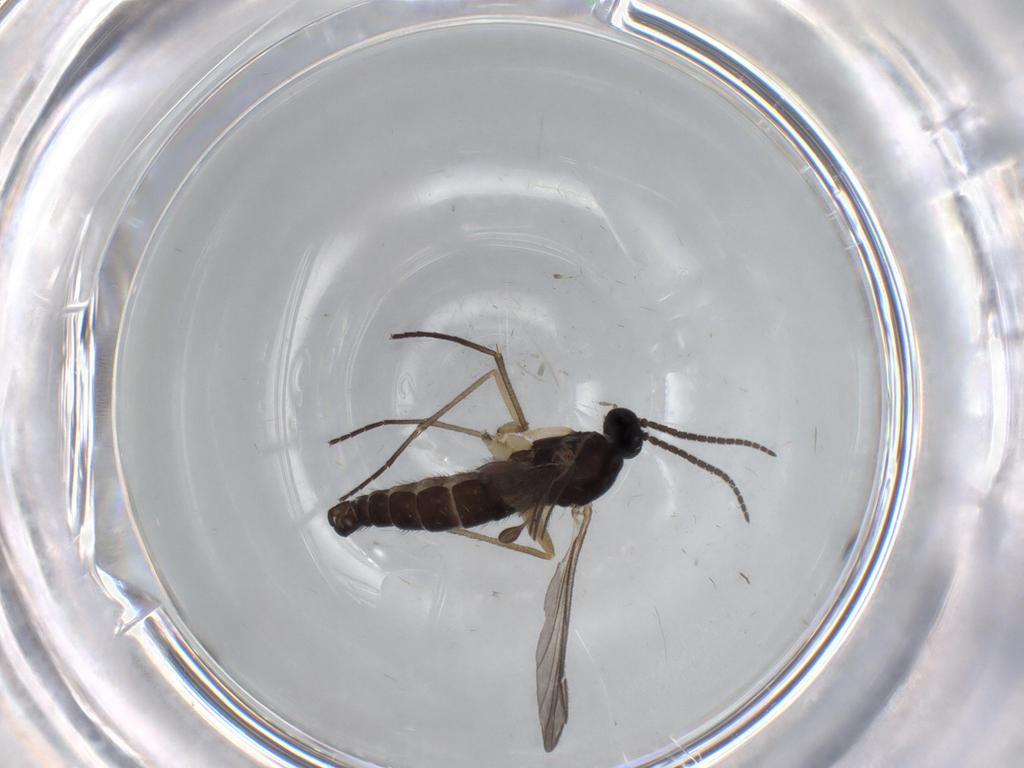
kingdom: Animalia
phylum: Arthropoda
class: Insecta
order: Diptera
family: Sciaridae
